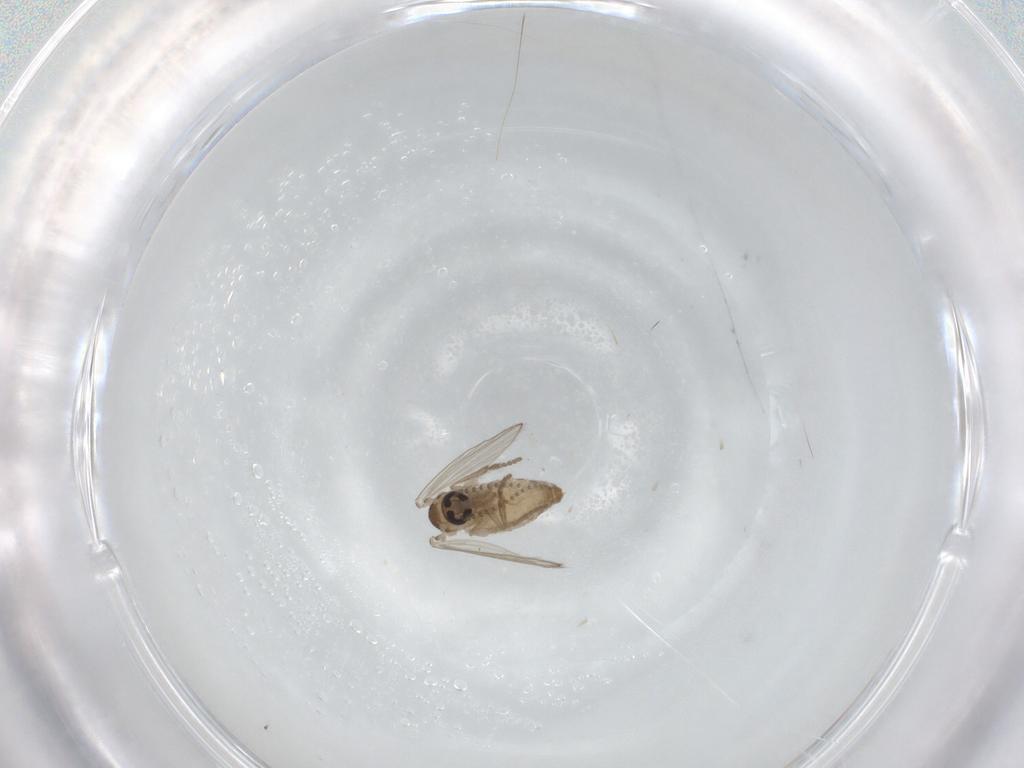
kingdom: Animalia
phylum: Arthropoda
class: Insecta
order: Diptera
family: Psychodidae
